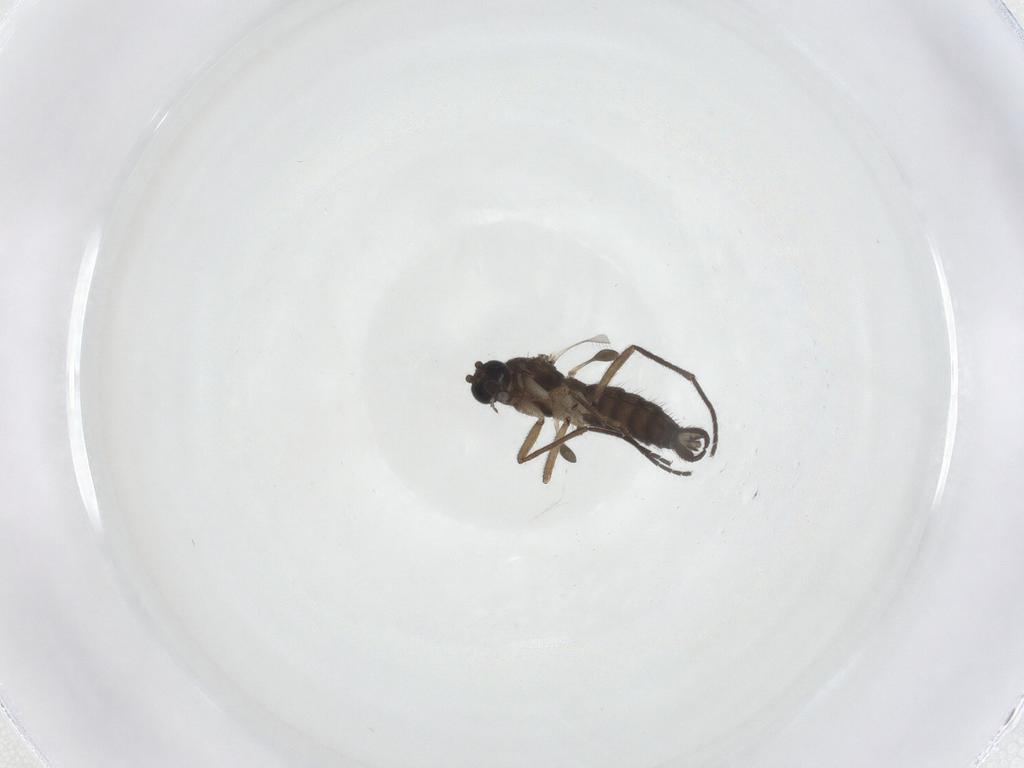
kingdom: Animalia
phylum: Arthropoda
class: Insecta
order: Diptera
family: Sciaridae
